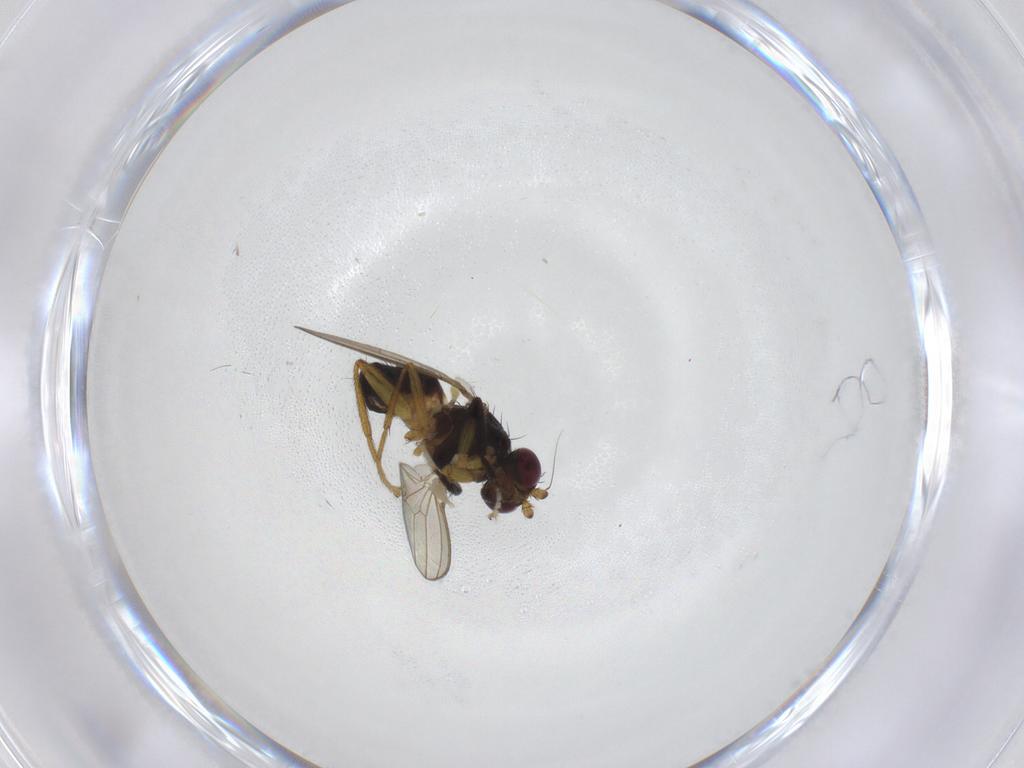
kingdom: Animalia
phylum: Arthropoda
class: Insecta
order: Diptera
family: Pseudopomyzidae
